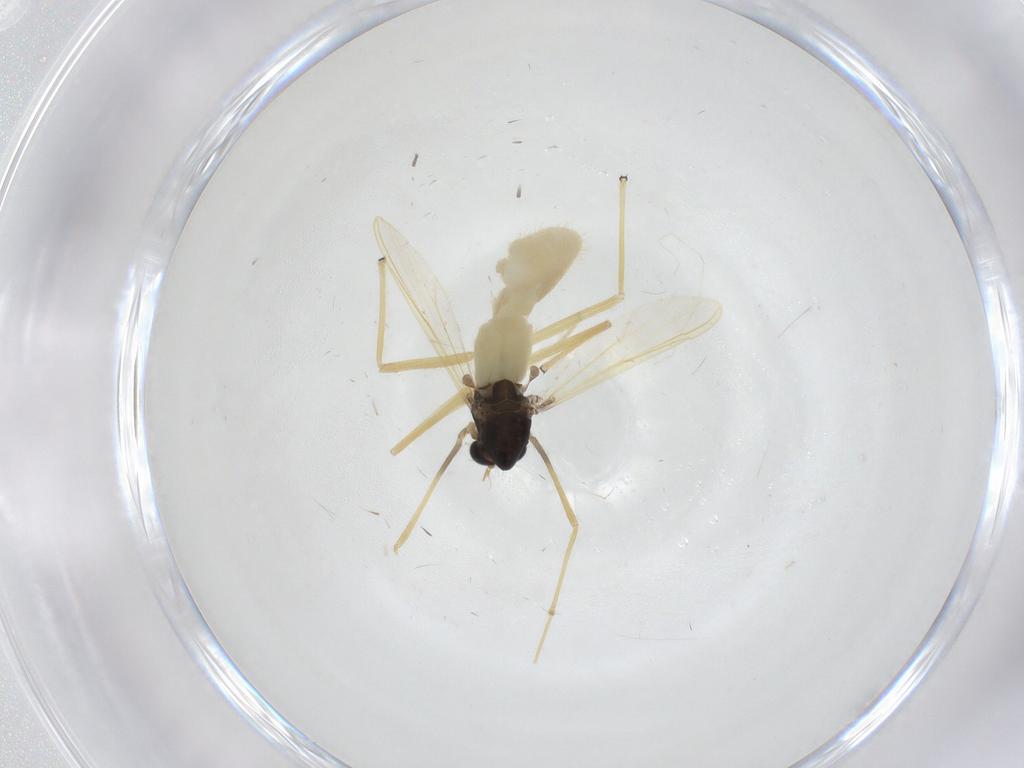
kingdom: Animalia
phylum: Arthropoda
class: Insecta
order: Diptera
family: Chironomidae
